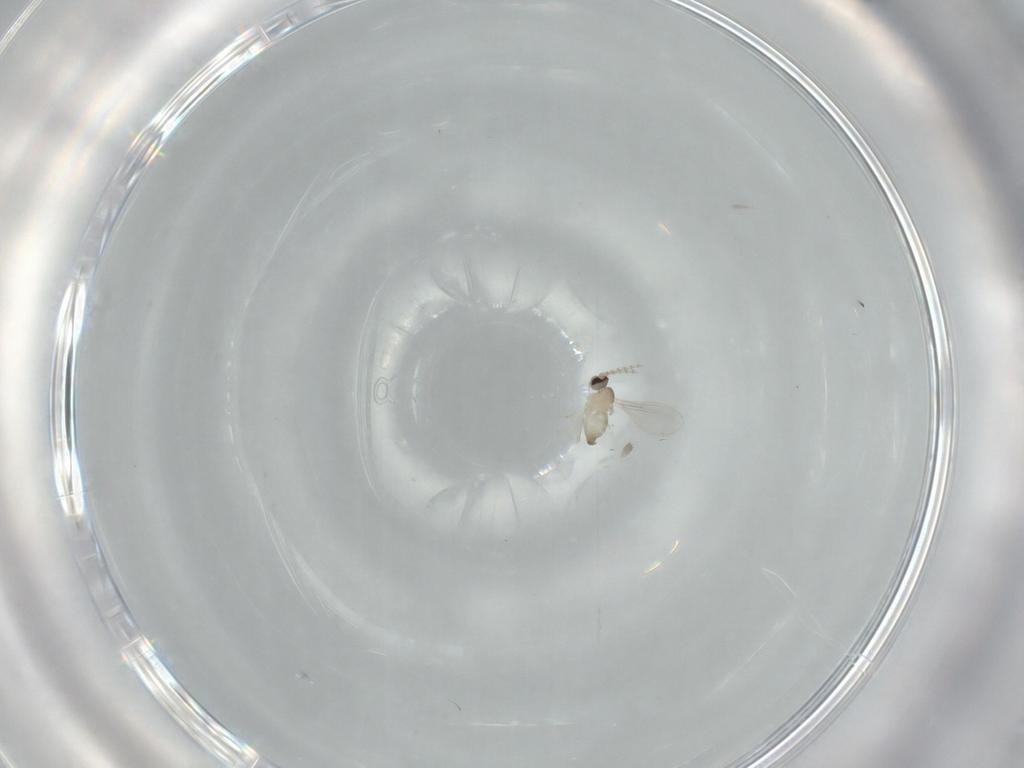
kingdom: Animalia
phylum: Arthropoda
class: Insecta
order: Diptera
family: Cecidomyiidae
